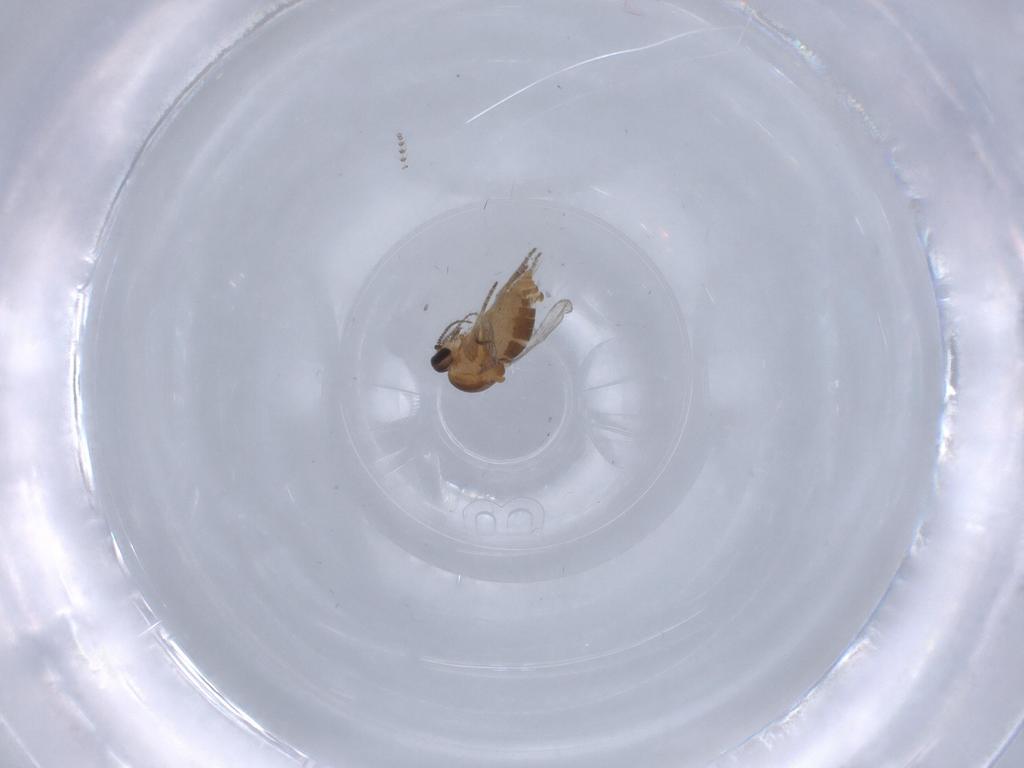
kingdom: Animalia
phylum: Arthropoda
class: Insecta
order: Diptera
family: Ceratopogonidae
